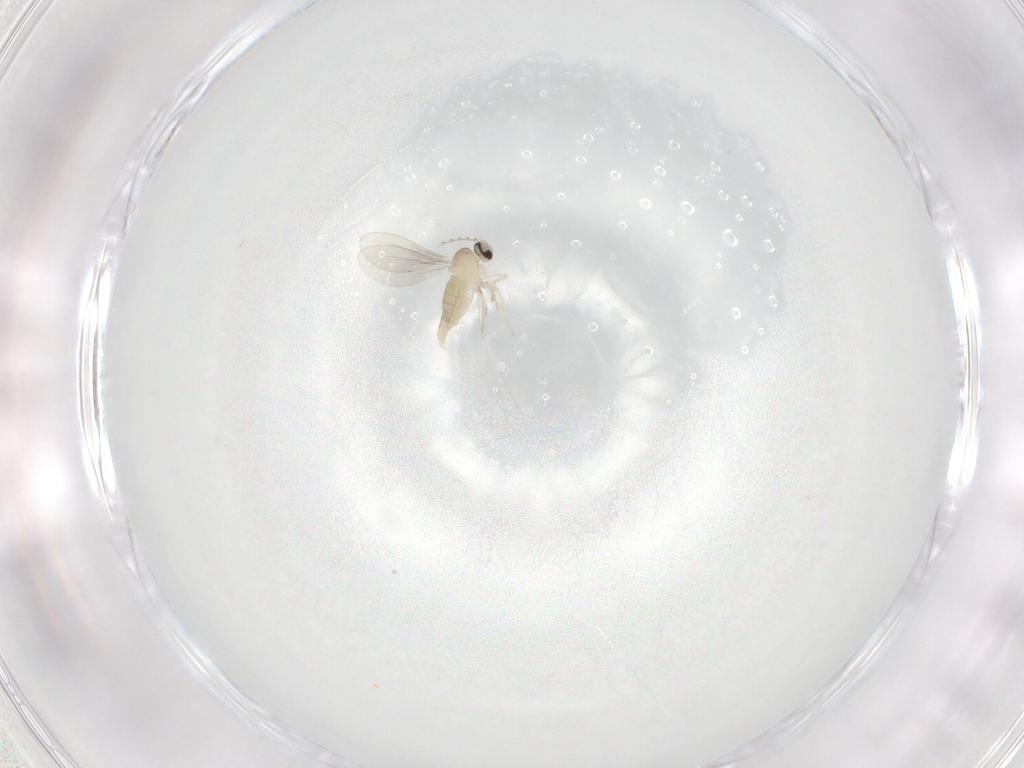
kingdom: Animalia
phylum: Arthropoda
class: Insecta
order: Diptera
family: Cecidomyiidae
